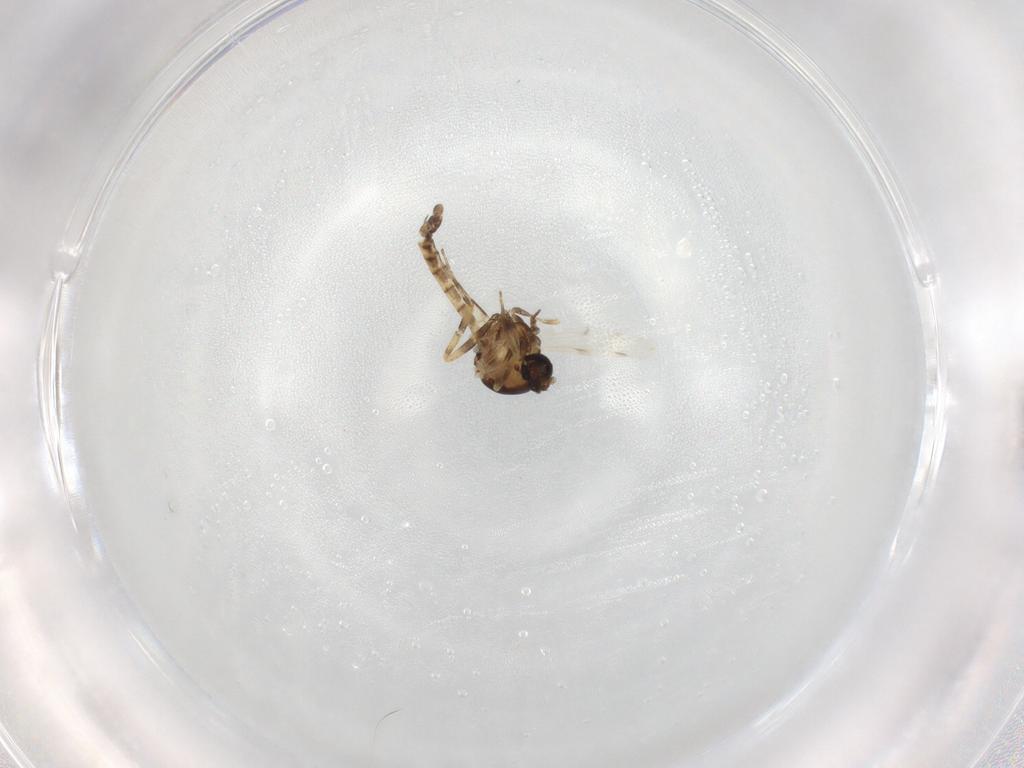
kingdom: Animalia
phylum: Arthropoda
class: Insecta
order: Diptera
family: Ceratopogonidae
